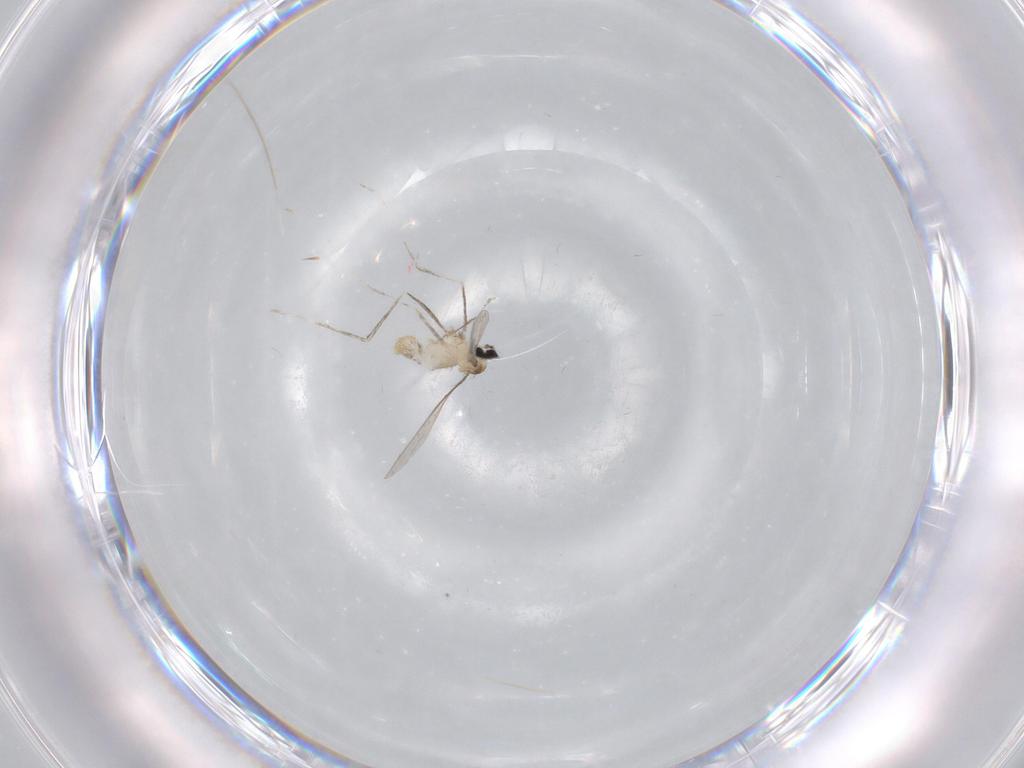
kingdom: Animalia
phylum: Arthropoda
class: Insecta
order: Diptera
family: Cecidomyiidae
